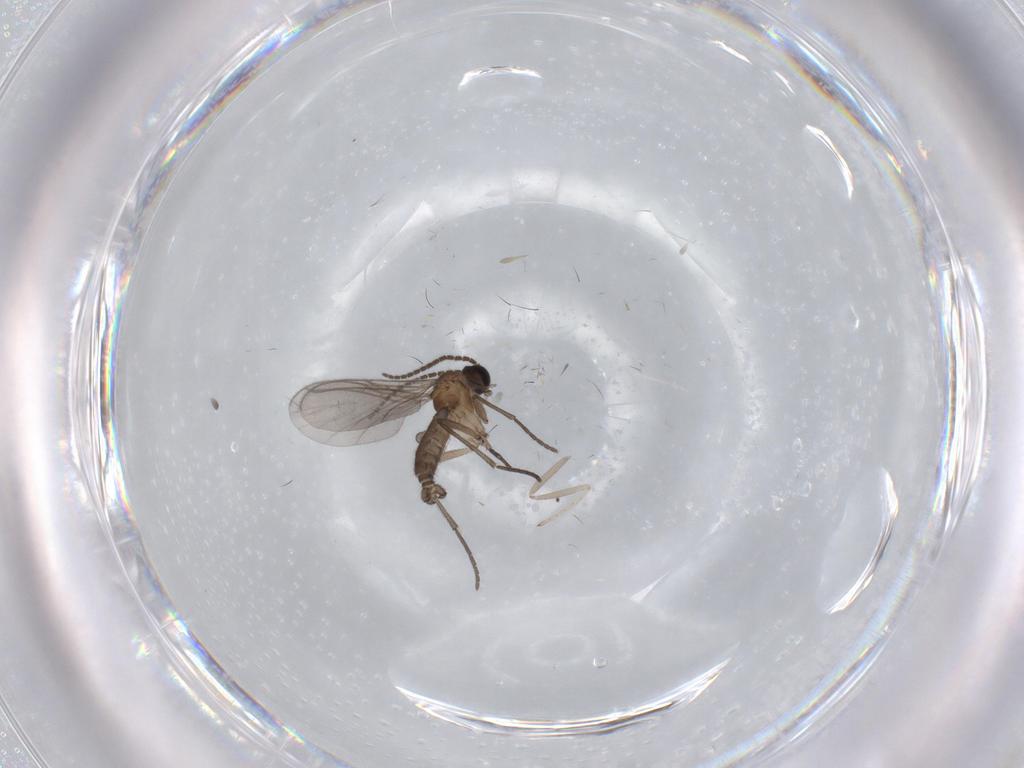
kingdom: Animalia
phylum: Arthropoda
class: Insecta
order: Diptera
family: Sciaridae
